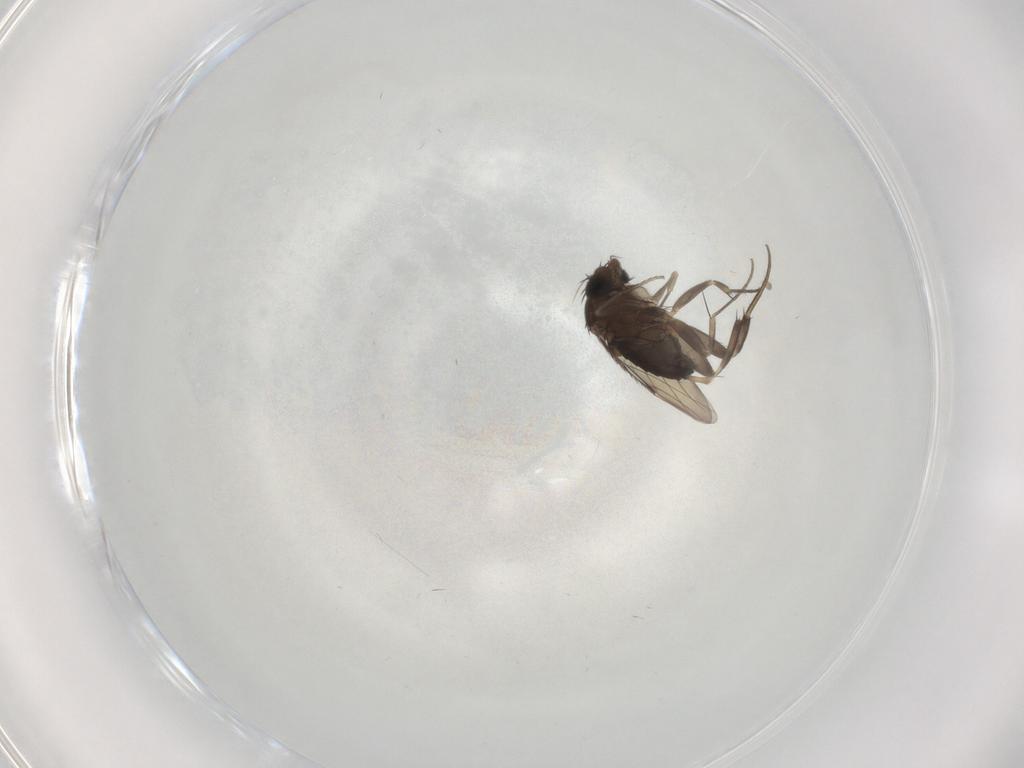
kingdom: Animalia
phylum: Arthropoda
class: Insecta
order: Diptera
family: Phoridae
